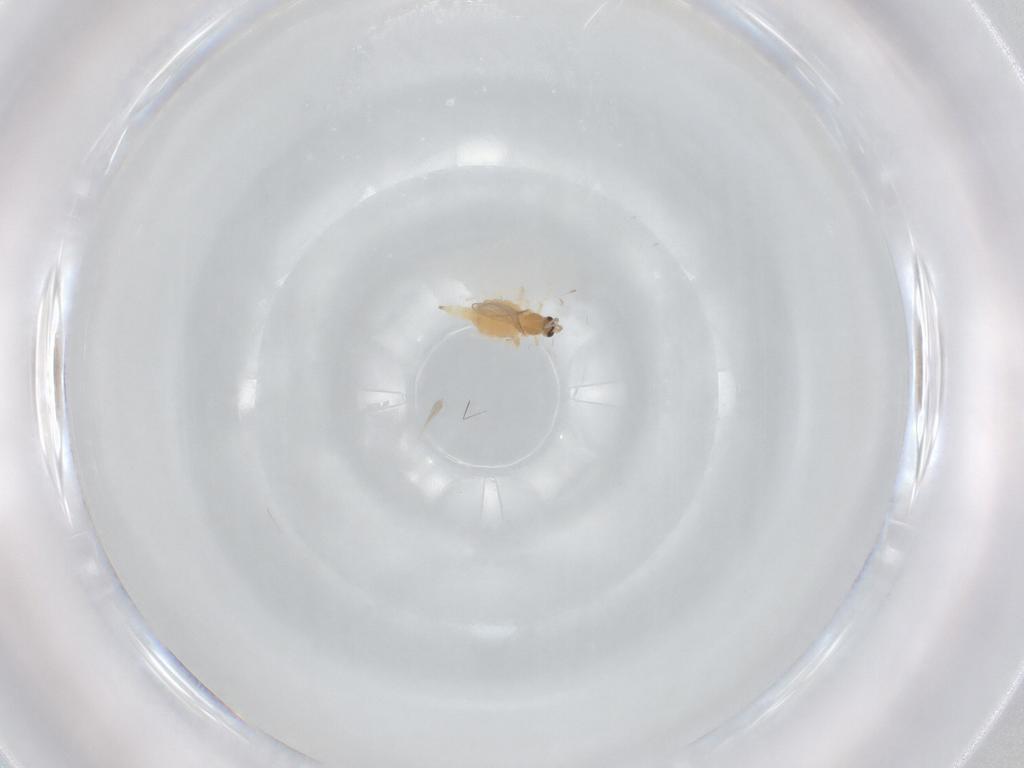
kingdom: Animalia
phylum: Arthropoda
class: Insecta
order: Diptera
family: Cecidomyiidae
